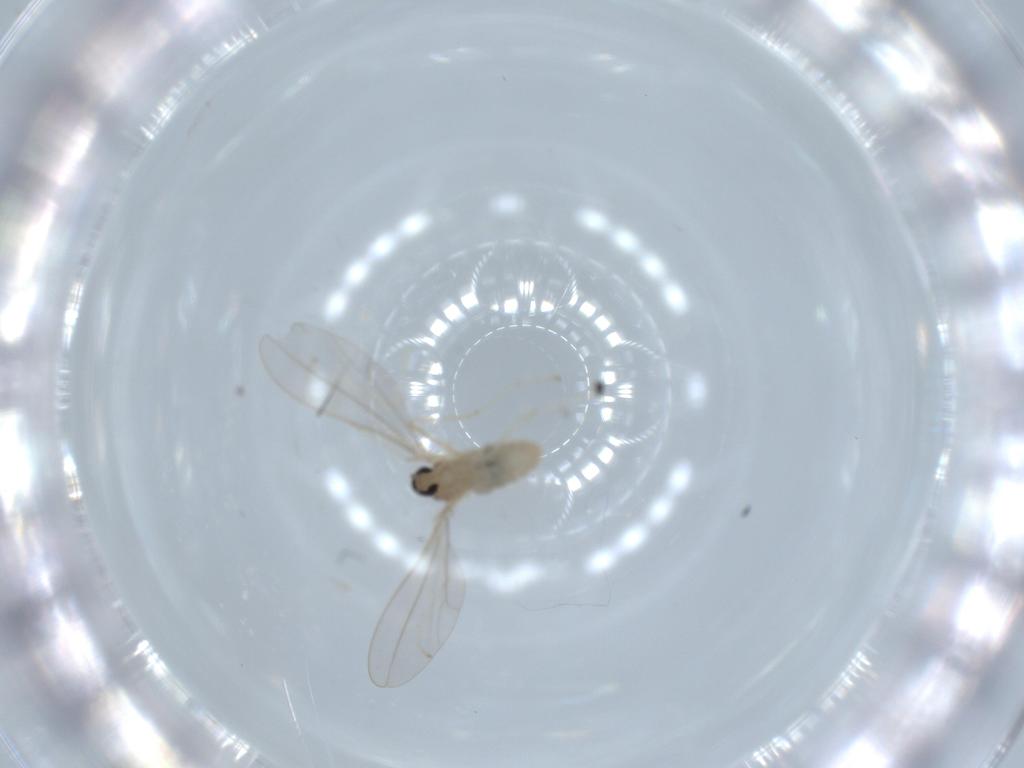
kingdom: Animalia
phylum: Arthropoda
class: Insecta
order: Diptera
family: Cecidomyiidae
